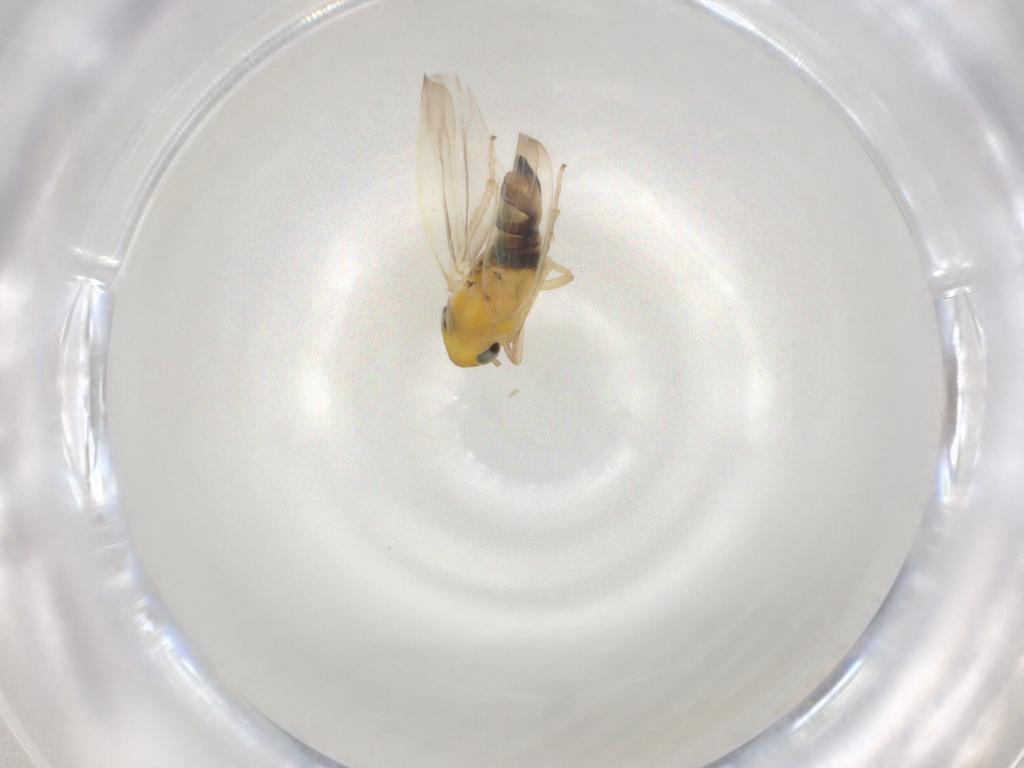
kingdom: Animalia
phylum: Arthropoda
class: Insecta
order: Hemiptera
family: Cicadellidae
